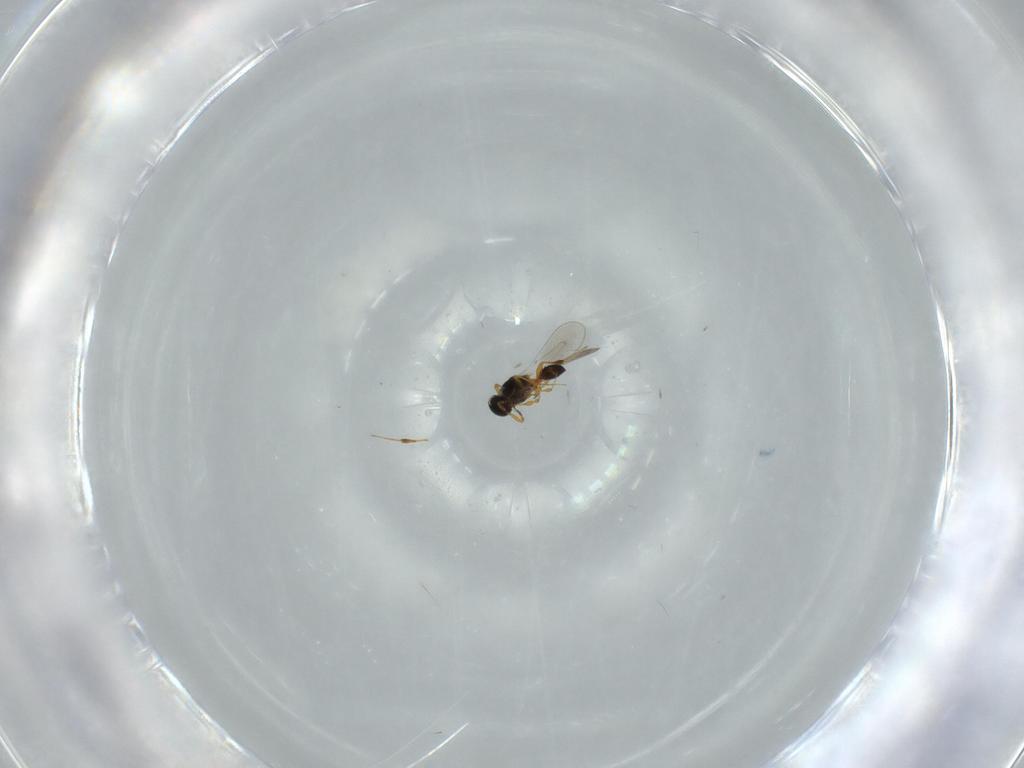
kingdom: Animalia
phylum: Arthropoda
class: Insecta
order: Hymenoptera
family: Platygastridae
